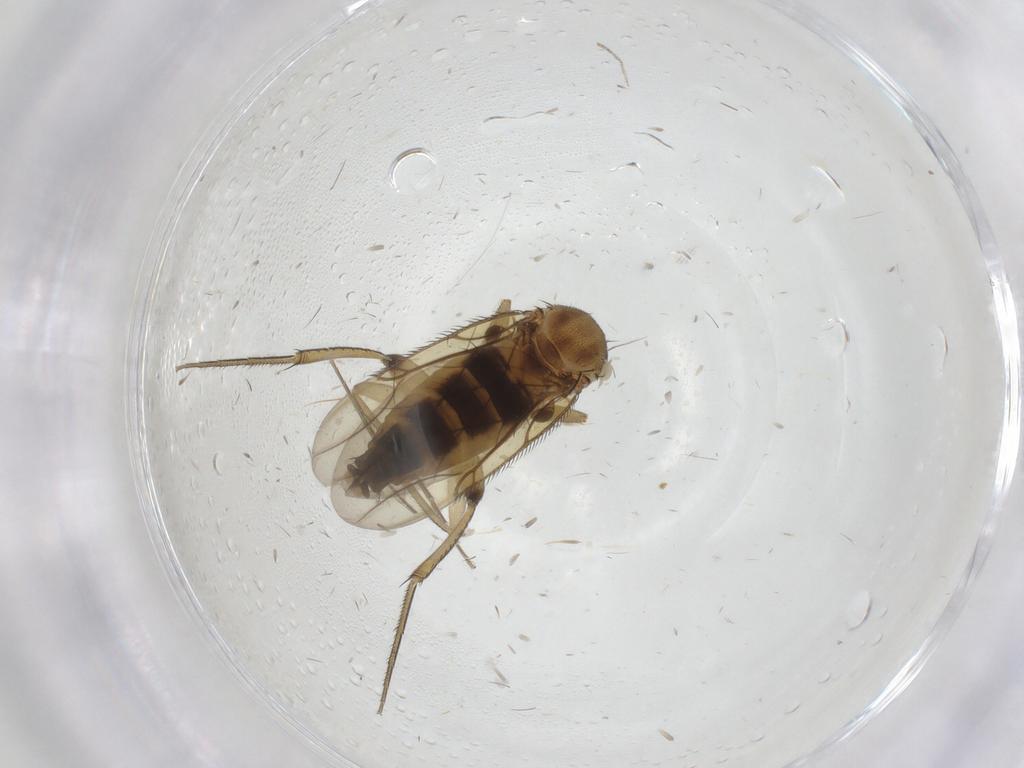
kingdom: Animalia
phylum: Arthropoda
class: Insecta
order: Diptera
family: Phoridae
